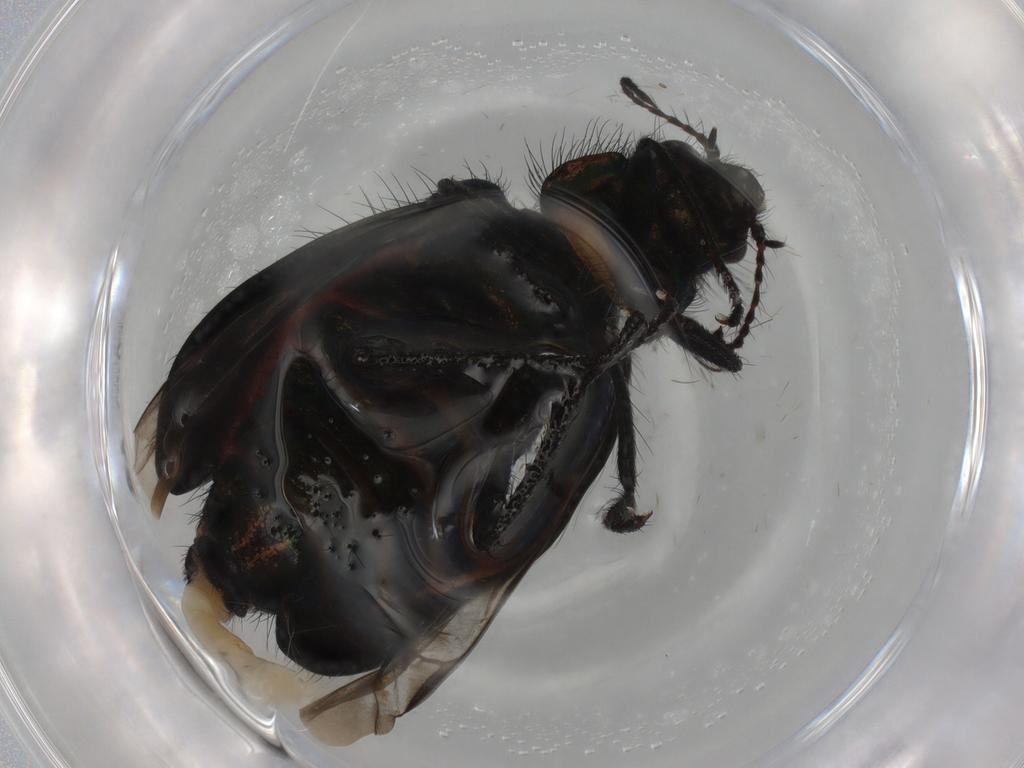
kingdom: Animalia
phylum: Arthropoda
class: Insecta
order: Coleoptera
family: Melyridae
